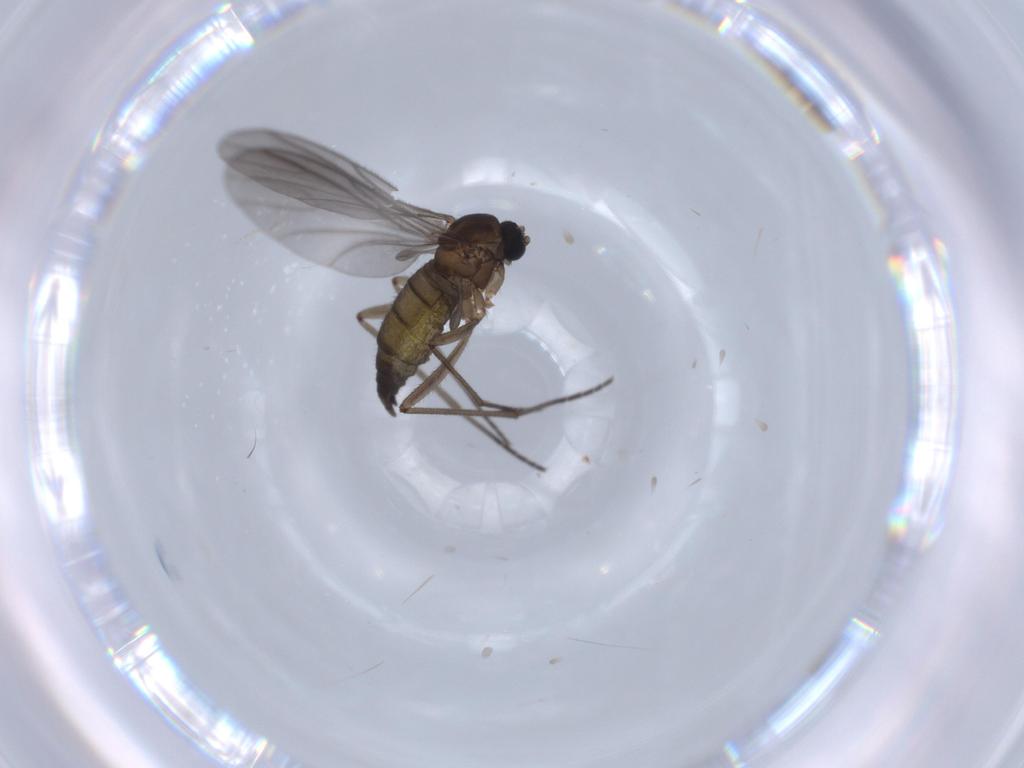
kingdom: Animalia
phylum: Arthropoda
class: Insecta
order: Diptera
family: Sciaridae
